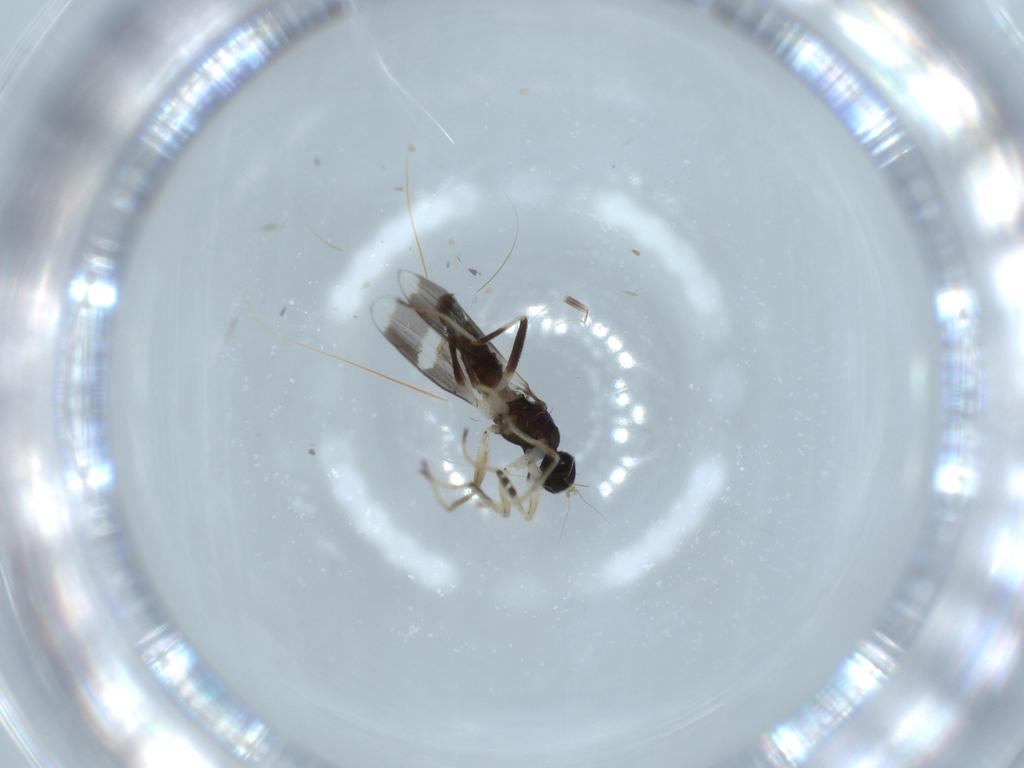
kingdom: Animalia
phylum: Arthropoda
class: Insecta
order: Diptera
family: Hybotidae
